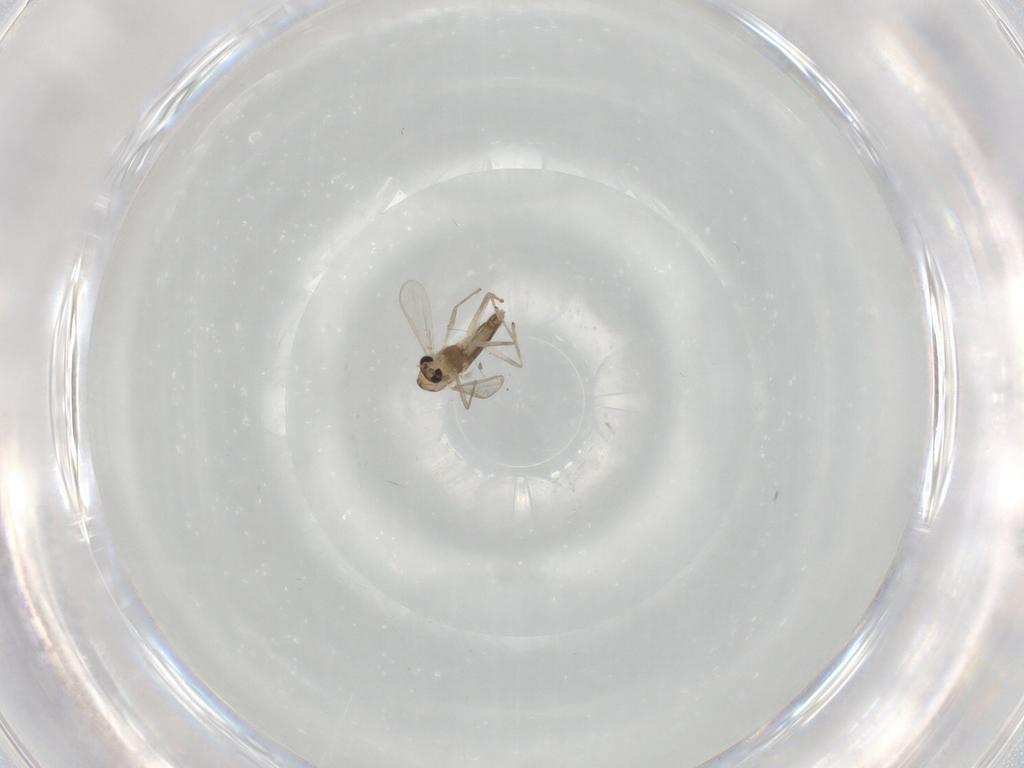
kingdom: Animalia
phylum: Arthropoda
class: Insecta
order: Diptera
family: Chironomidae
